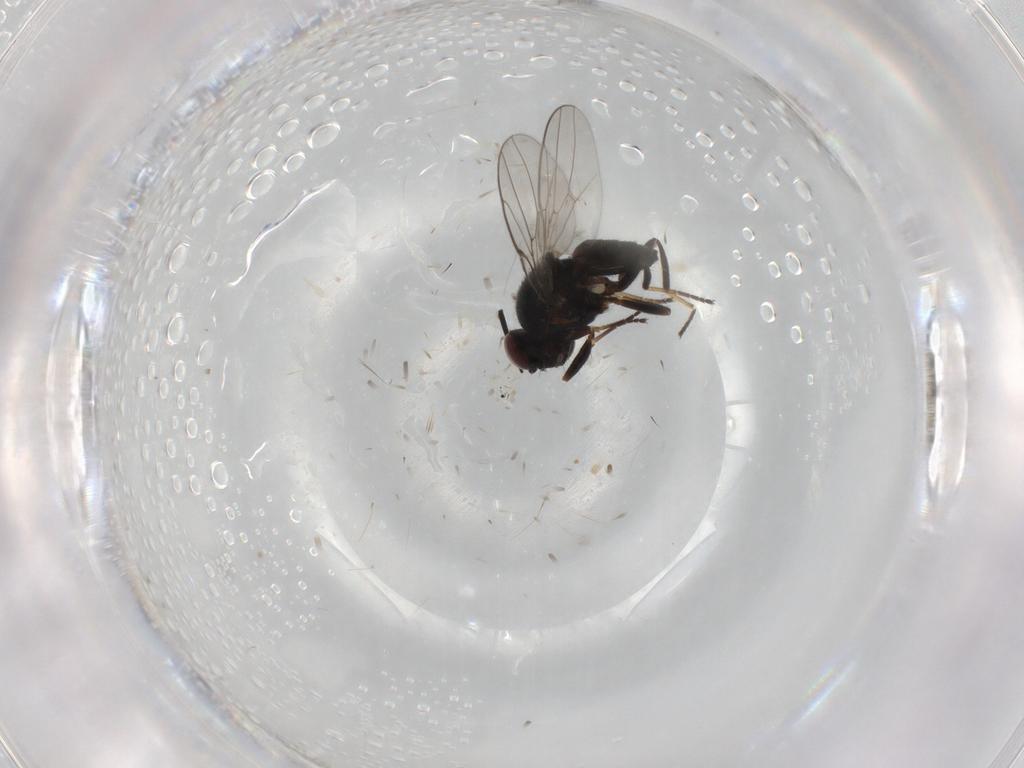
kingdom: Animalia
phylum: Arthropoda
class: Insecta
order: Diptera
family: Chloropidae
